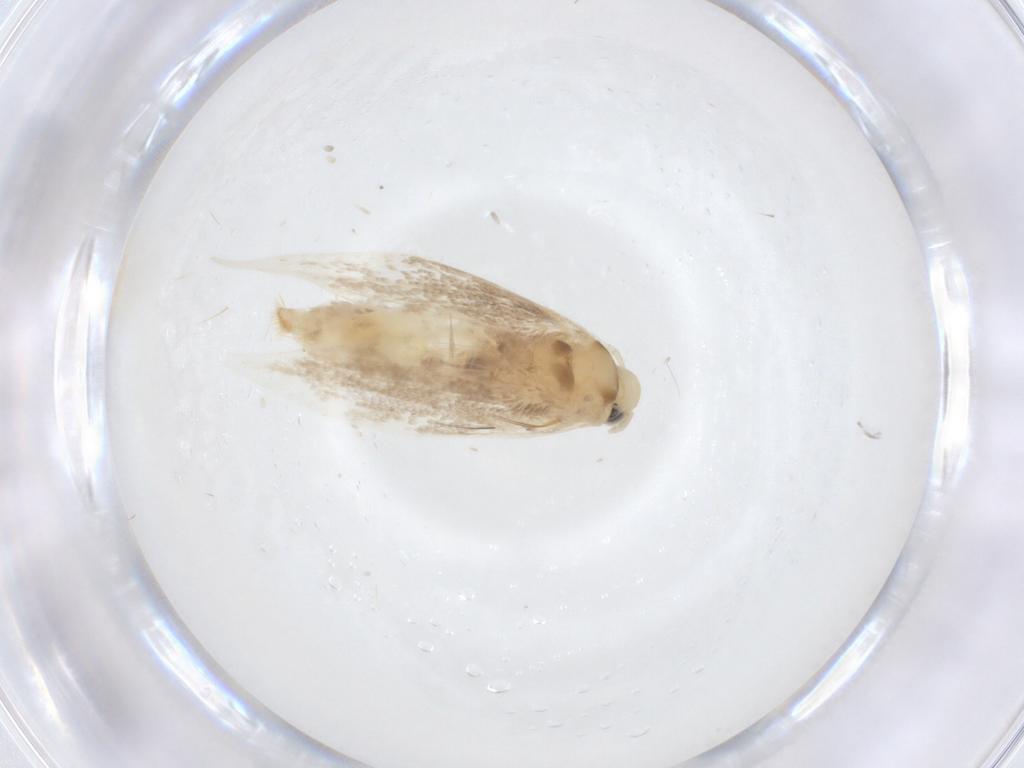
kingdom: Animalia
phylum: Arthropoda
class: Insecta
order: Lepidoptera
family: Gracillariidae
